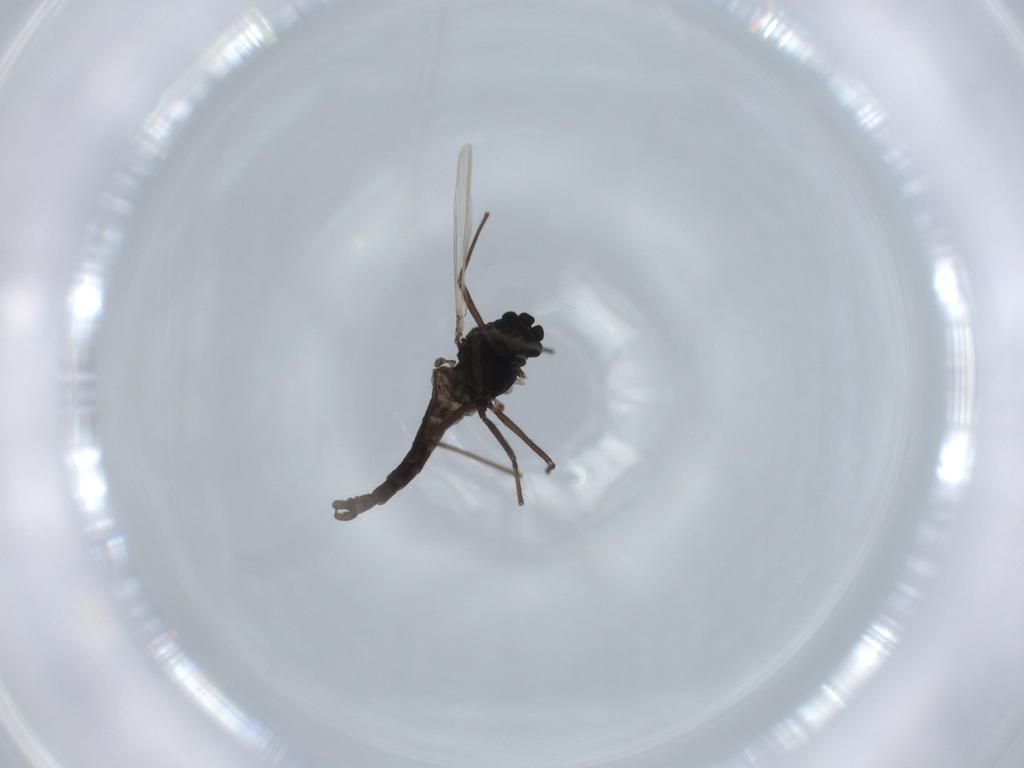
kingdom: Animalia
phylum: Arthropoda
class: Insecta
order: Diptera
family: Chironomidae
